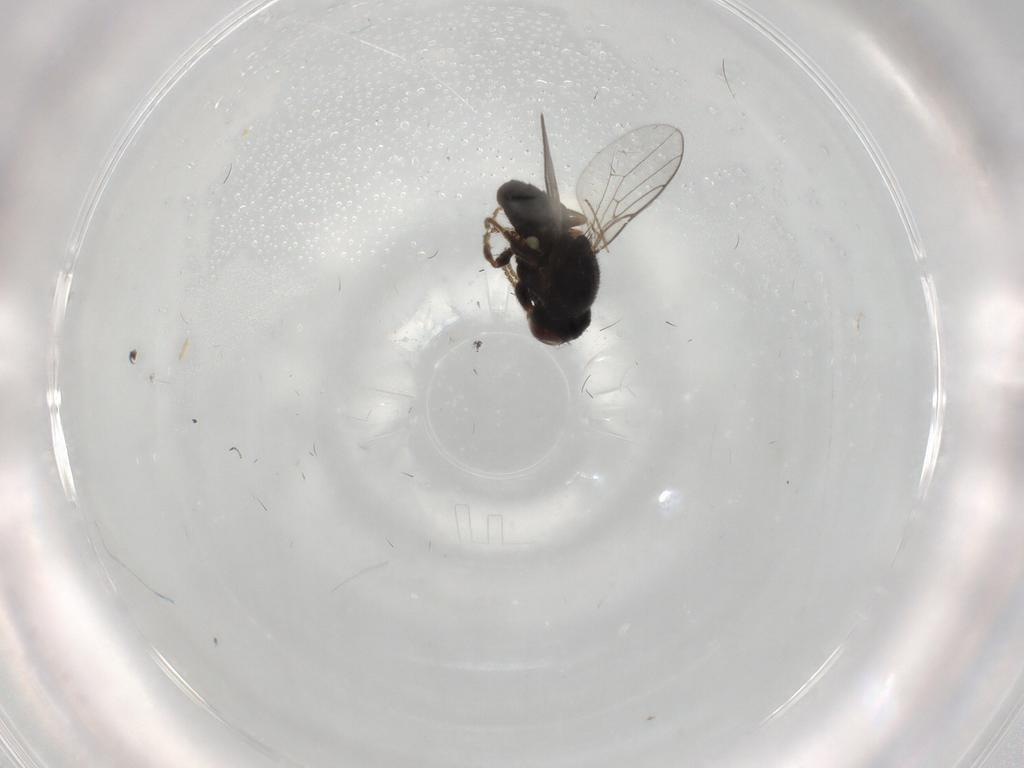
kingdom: Animalia
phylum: Arthropoda
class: Insecta
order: Diptera
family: Chloropidae
